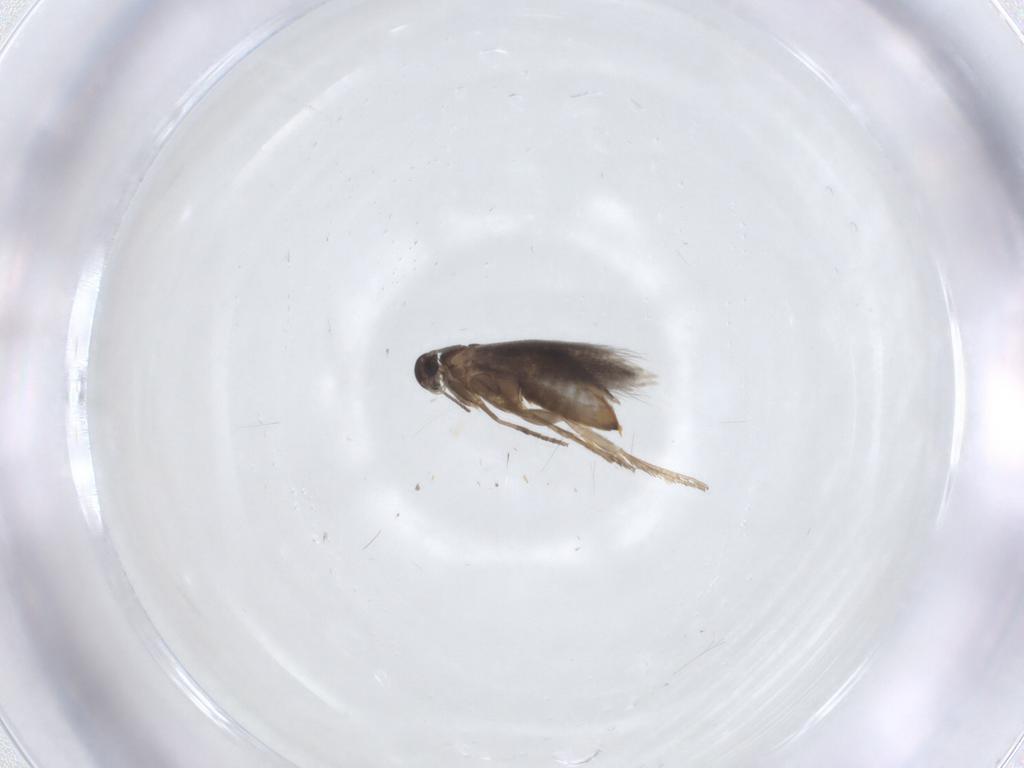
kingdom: Animalia
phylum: Arthropoda
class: Insecta
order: Lepidoptera
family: Heliozelidae
